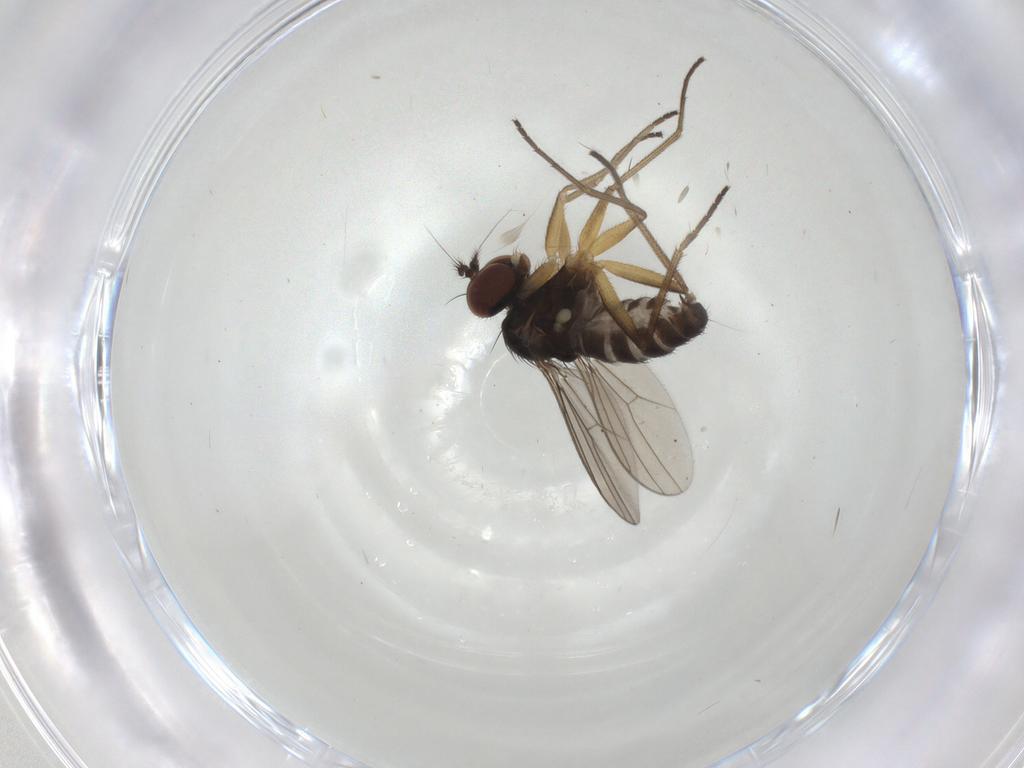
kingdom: Animalia
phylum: Arthropoda
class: Insecta
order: Diptera
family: Dolichopodidae
